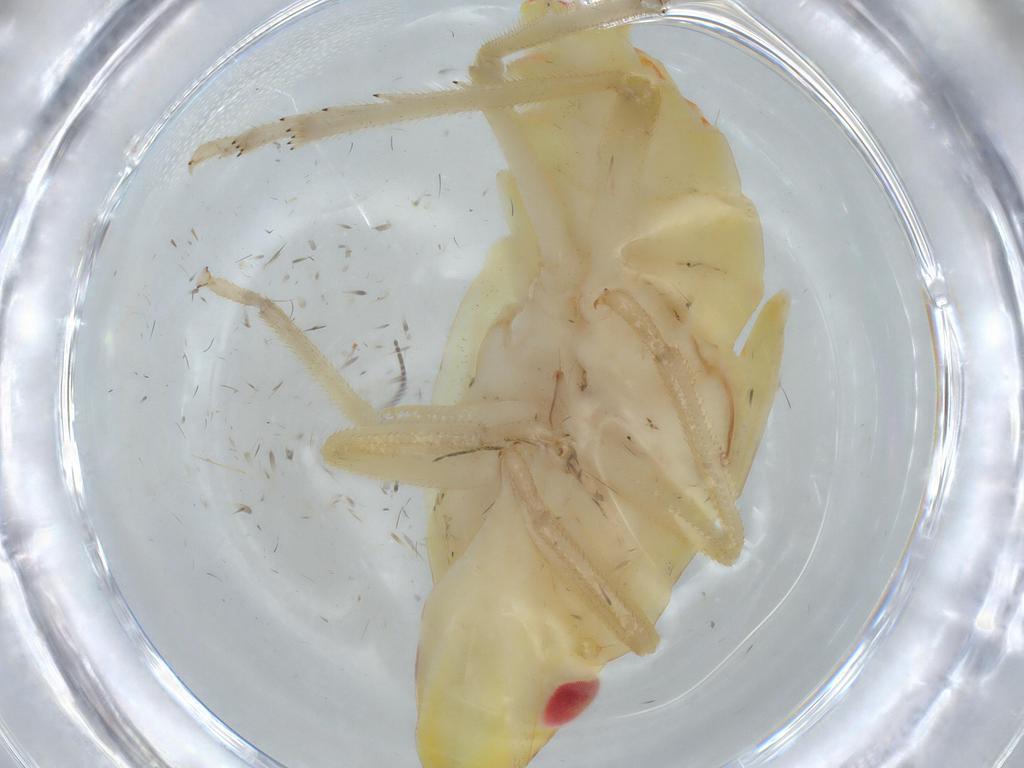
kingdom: Animalia
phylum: Arthropoda
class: Insecta
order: Hemiptera
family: Tropiduchidae
